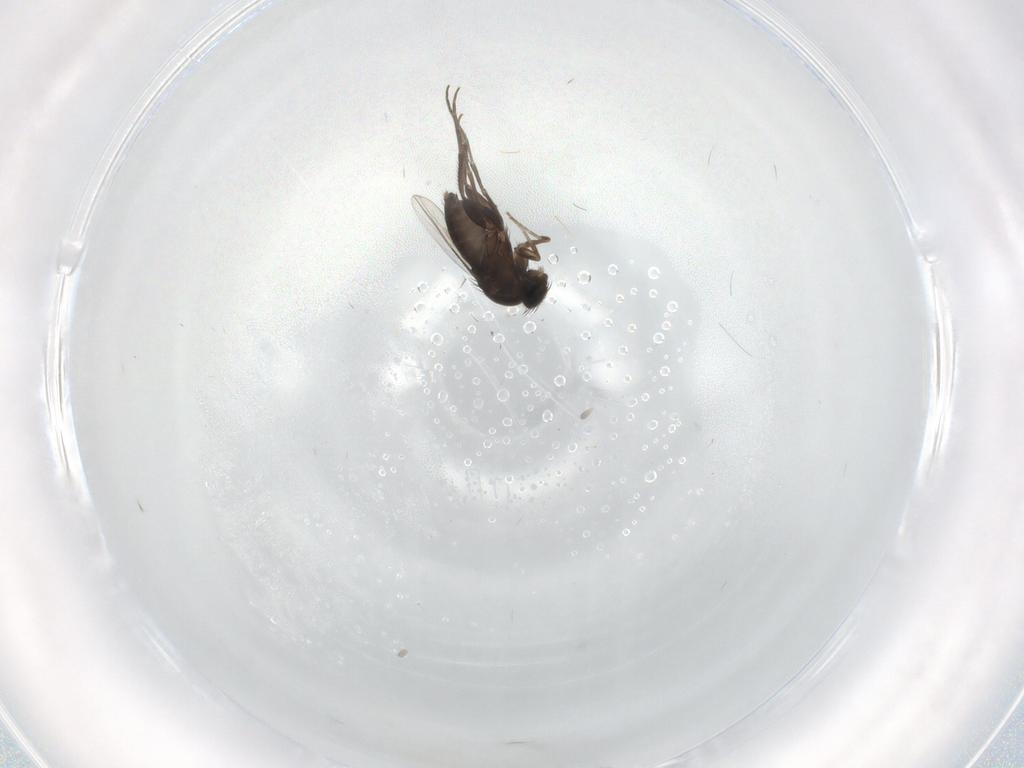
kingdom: Animalia
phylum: Arthropoda
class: Insecta
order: Diptera
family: Phoridae
